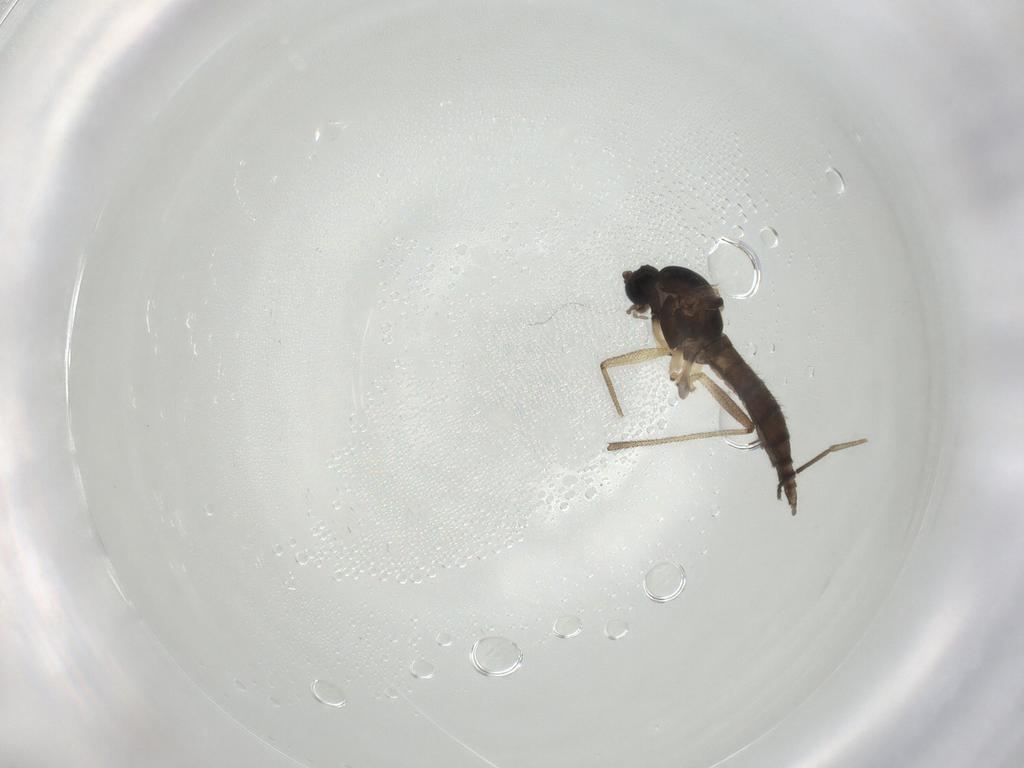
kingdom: Animalia
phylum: Arthropoda
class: Insecta
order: Diptera
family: Sciaridae
